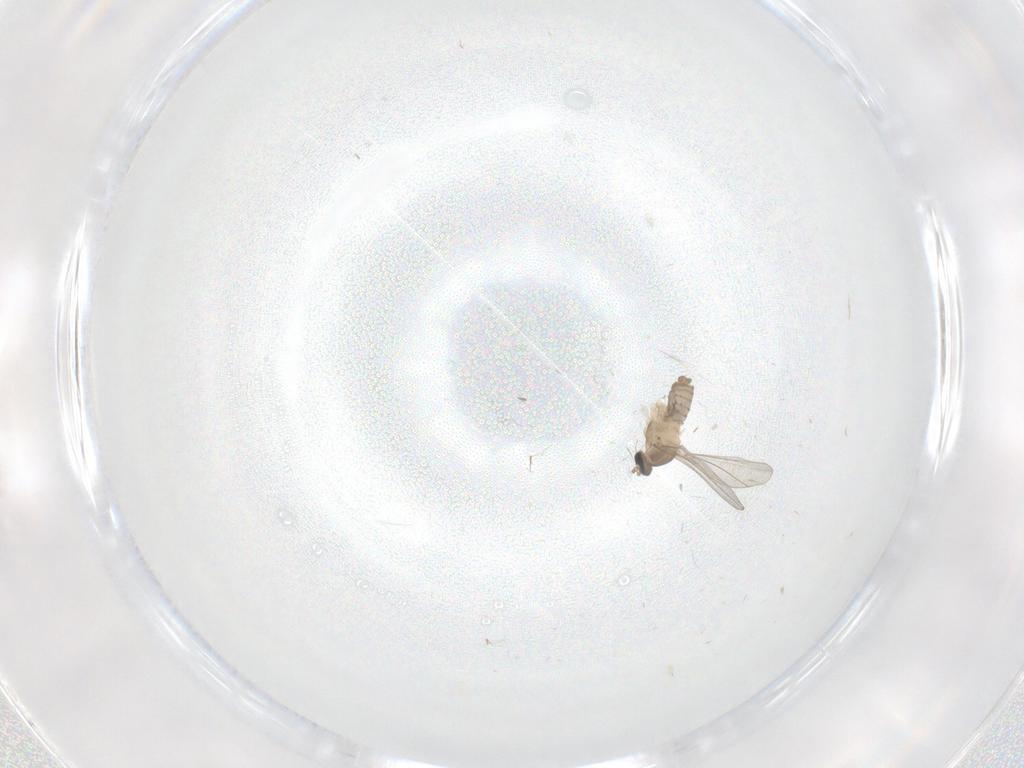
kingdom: Animalia
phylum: Arthropoda
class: Insecta
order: Diptera
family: Cecidomyiidae
